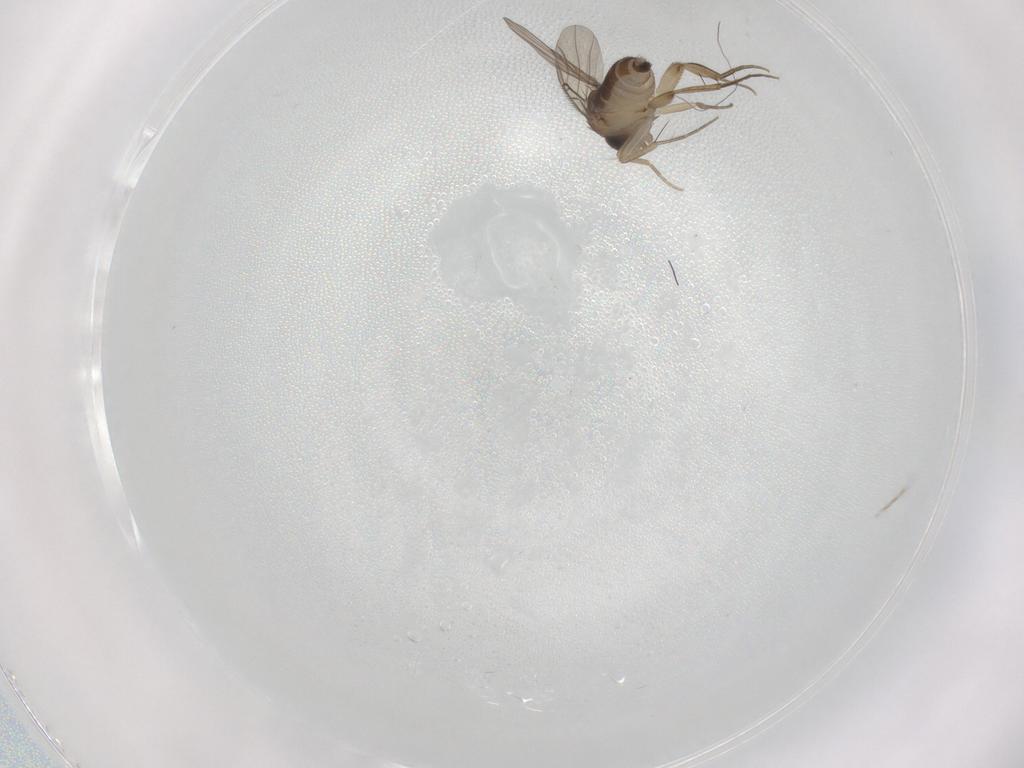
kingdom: Animalia
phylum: Arthropoda
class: Insecta
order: Diptera
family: Phoridae
